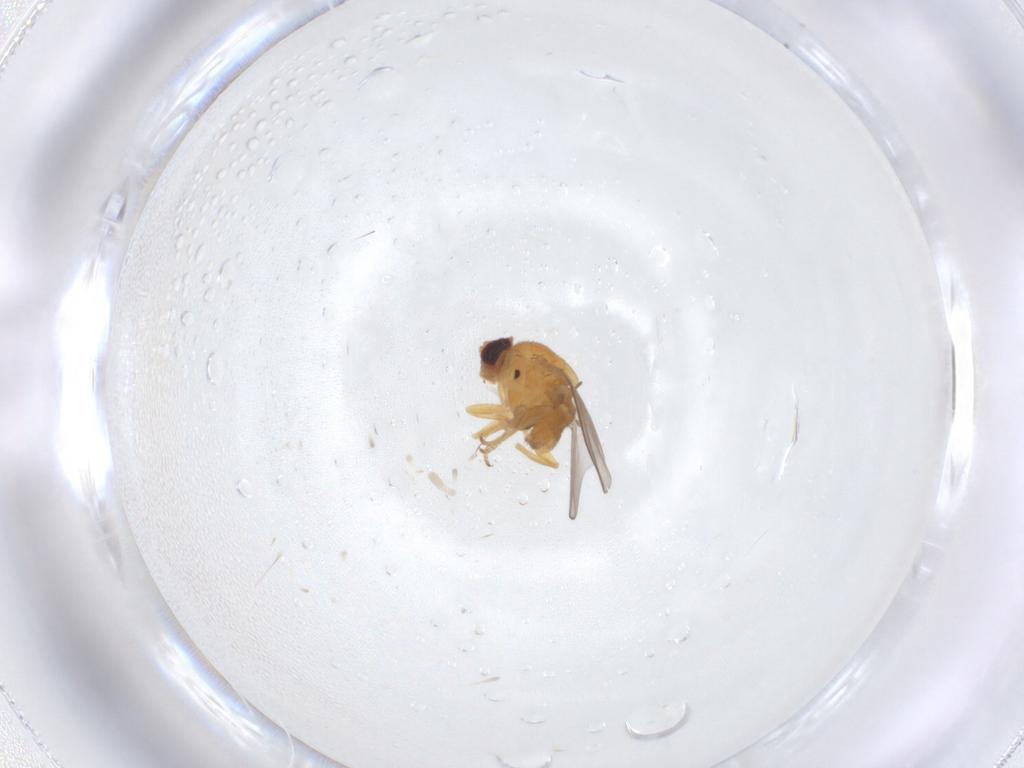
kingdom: Animalia
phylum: Arthropoda
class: Insecta
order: Diptera
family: Chloropidae
